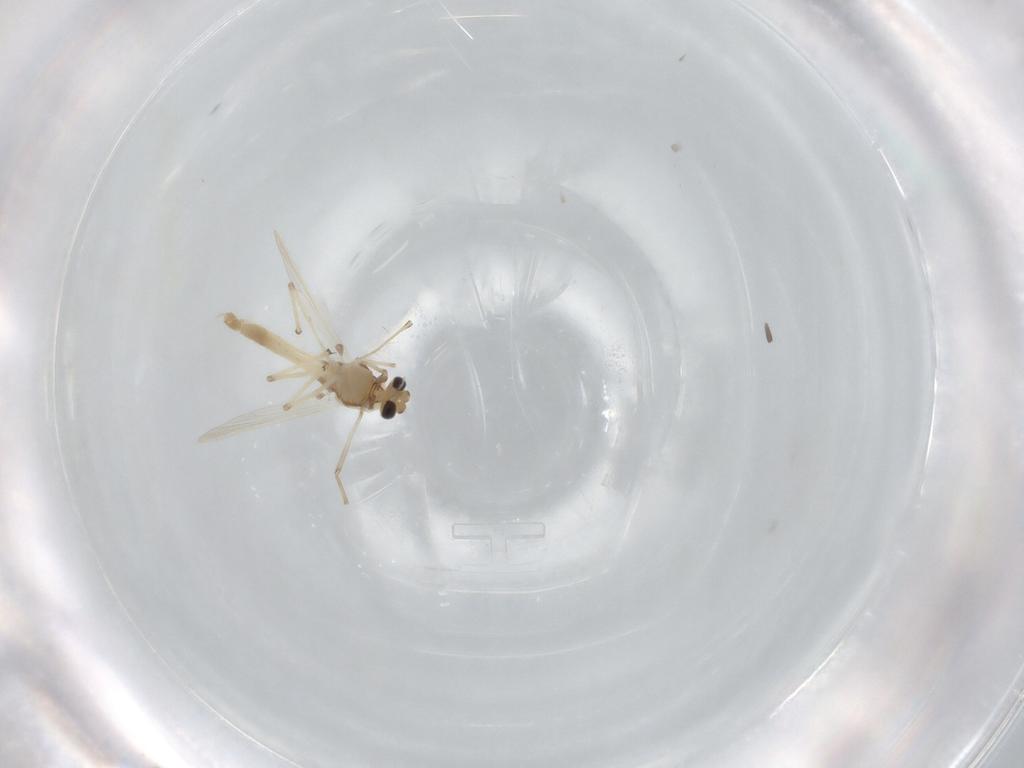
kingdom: Animalia
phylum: Arthropoda
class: Insecta
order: Diptera
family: Chironomidae
